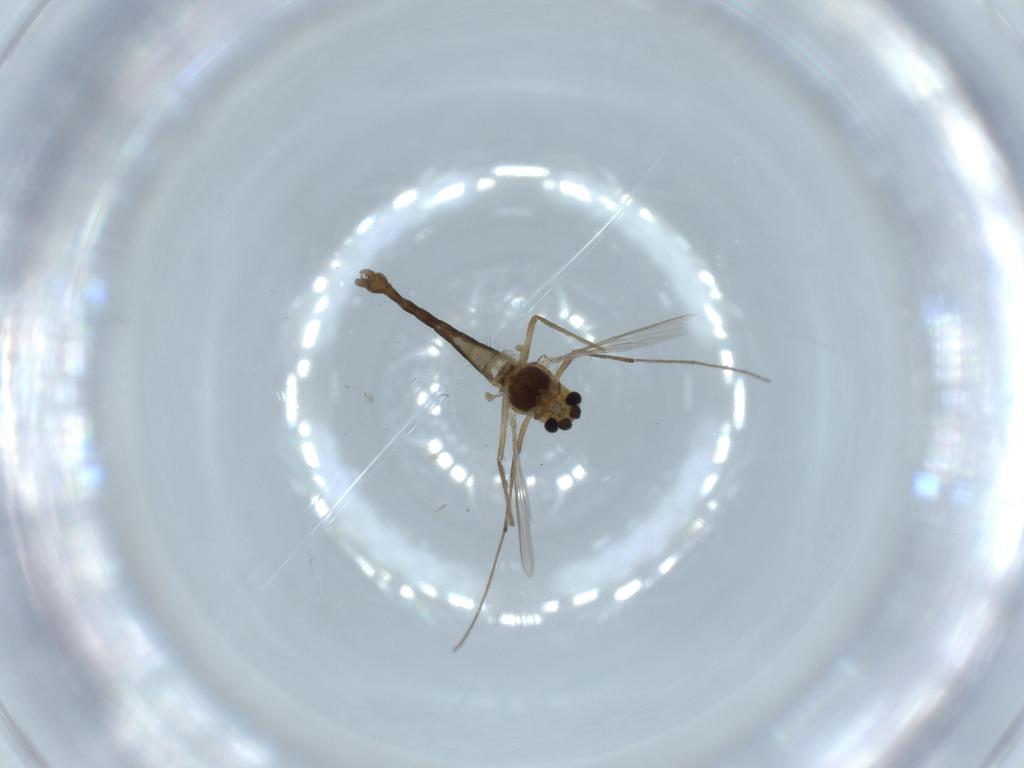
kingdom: Animalia
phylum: Arthropoda
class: Insecta
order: Diptera
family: Chironomidae
